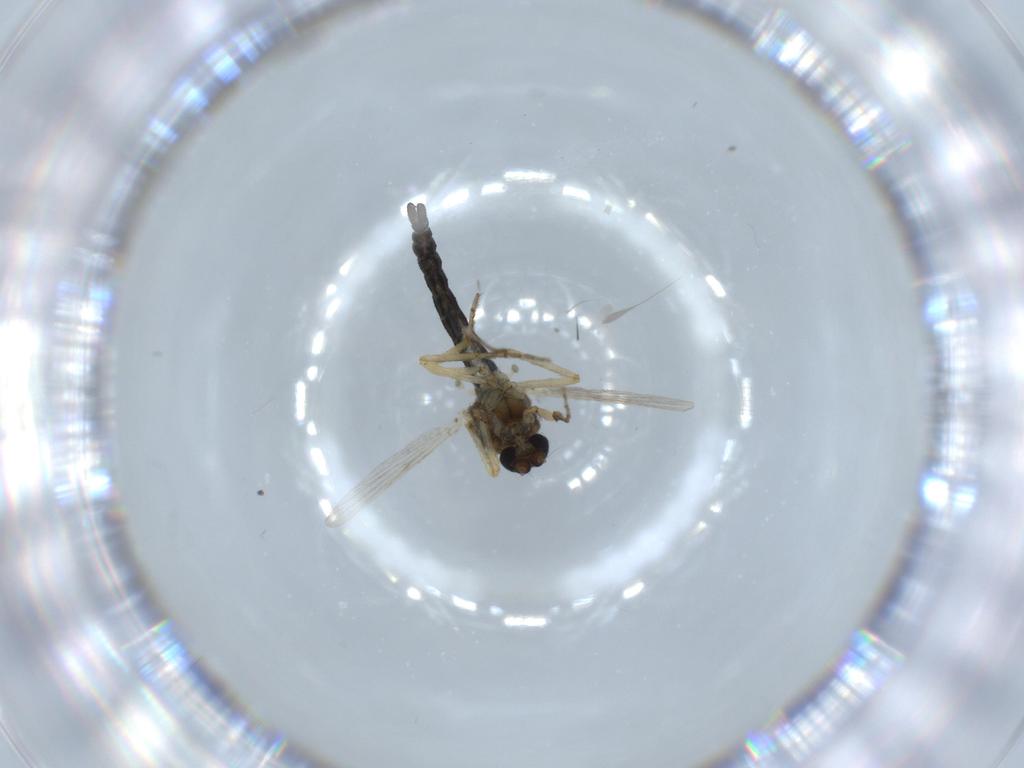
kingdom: Animalia
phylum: Arthropoda
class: Insecta
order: Diptera
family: Ceratopogonidae
